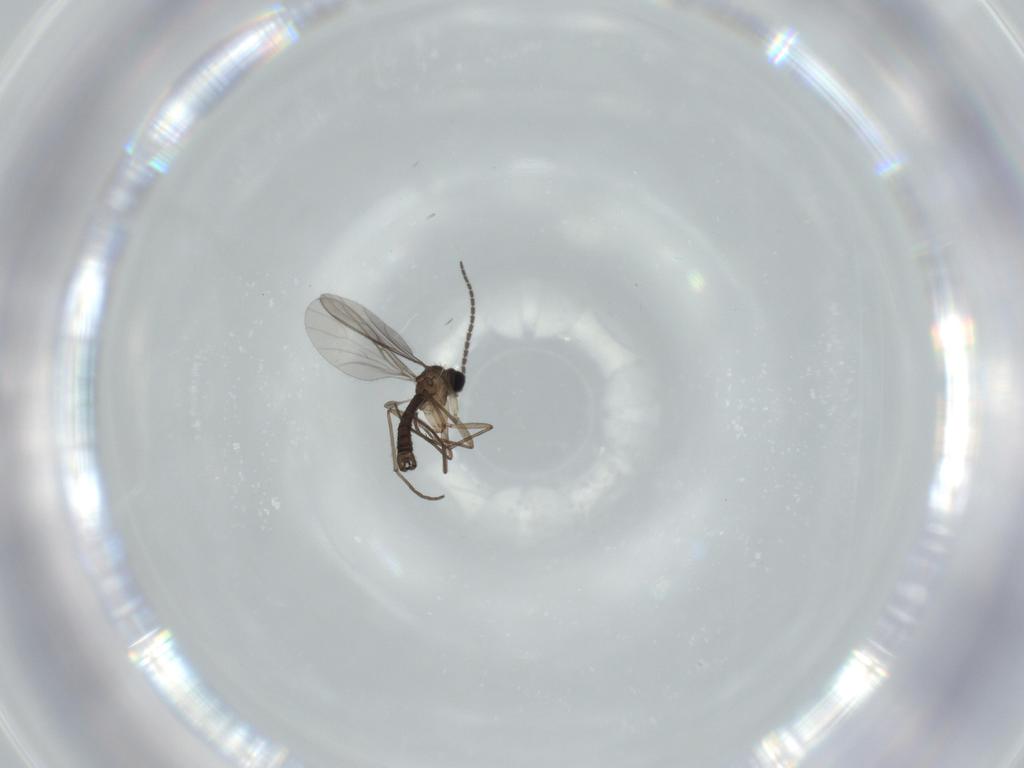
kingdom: Animalia
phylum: Arthropoda
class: Insecta
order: Diptera
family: Sciaridae
